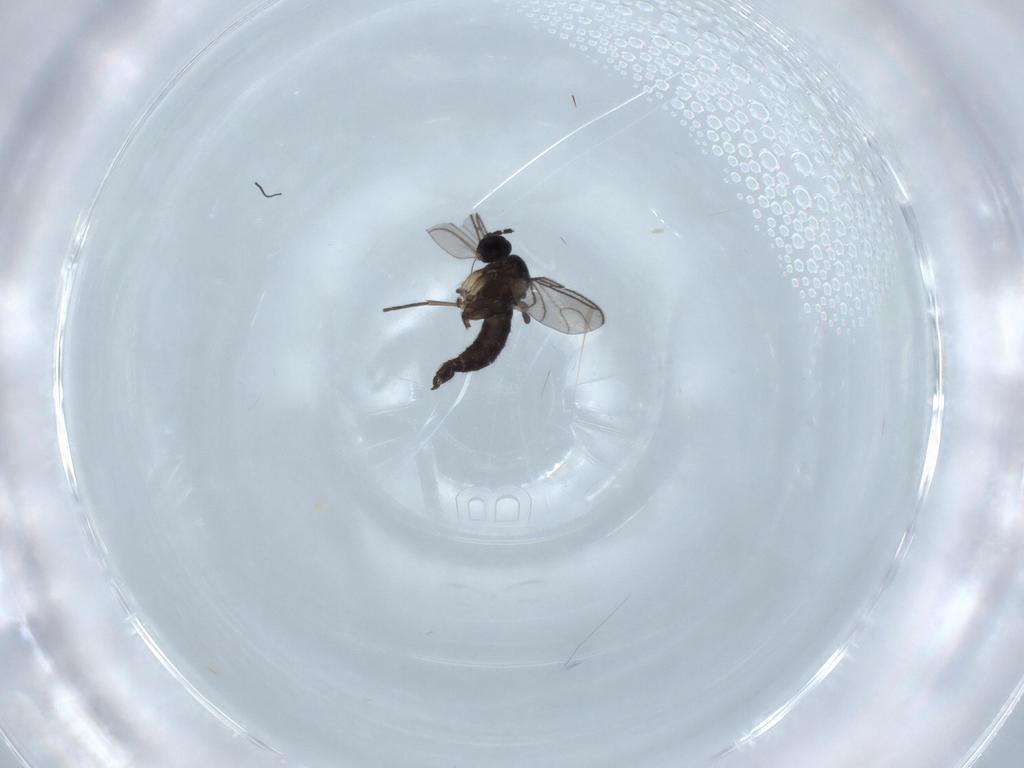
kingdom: Animalia
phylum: Arthropoda
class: Insecta
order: Diptera
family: Sciaridae
